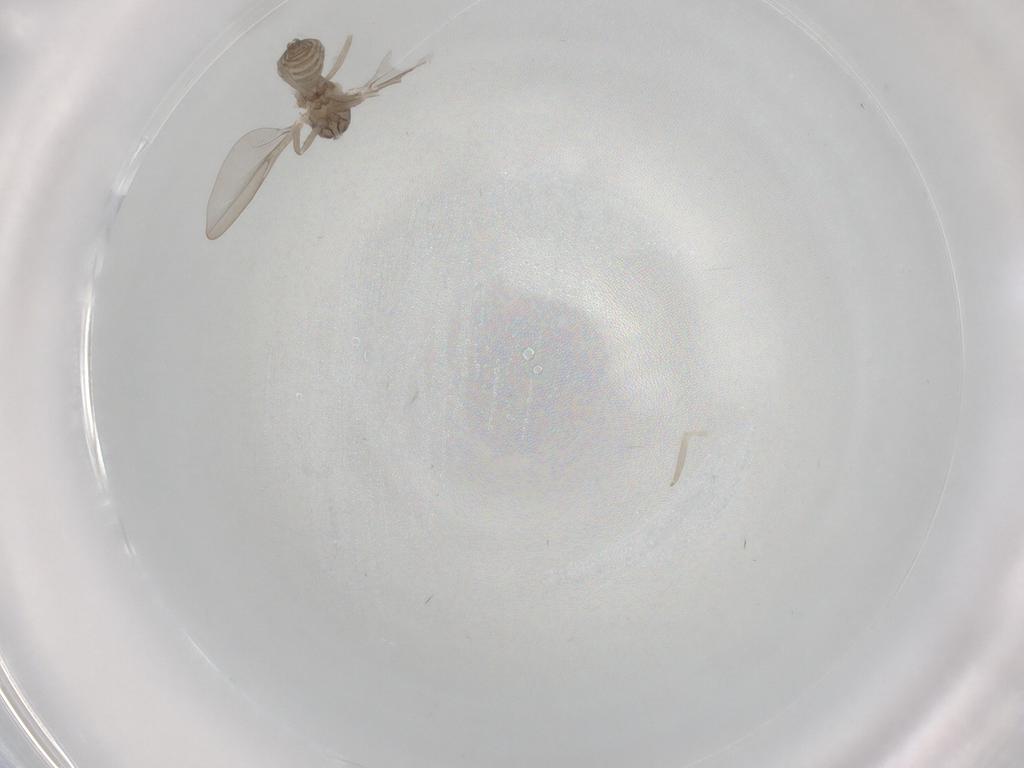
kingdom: Animalia
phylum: Arthropoda
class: Insecta
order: Diptera
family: Cecidomyiidae
